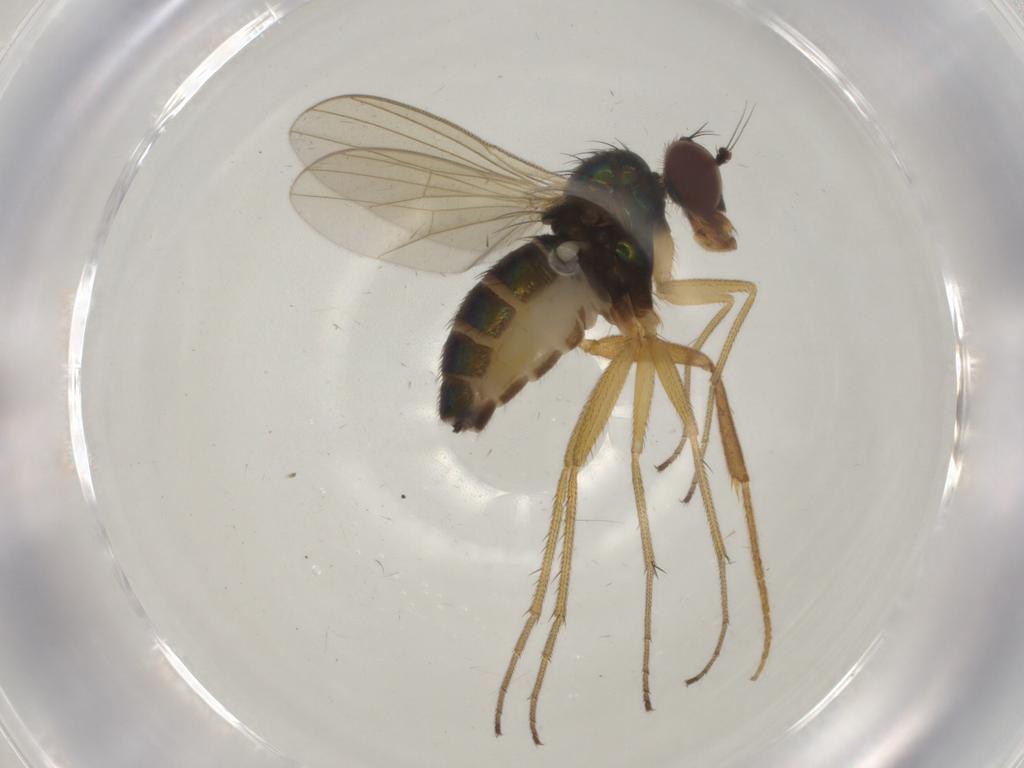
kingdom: Animalia
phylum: Arthropoda
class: Insecta
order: Diptera
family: Dolichopodidae
